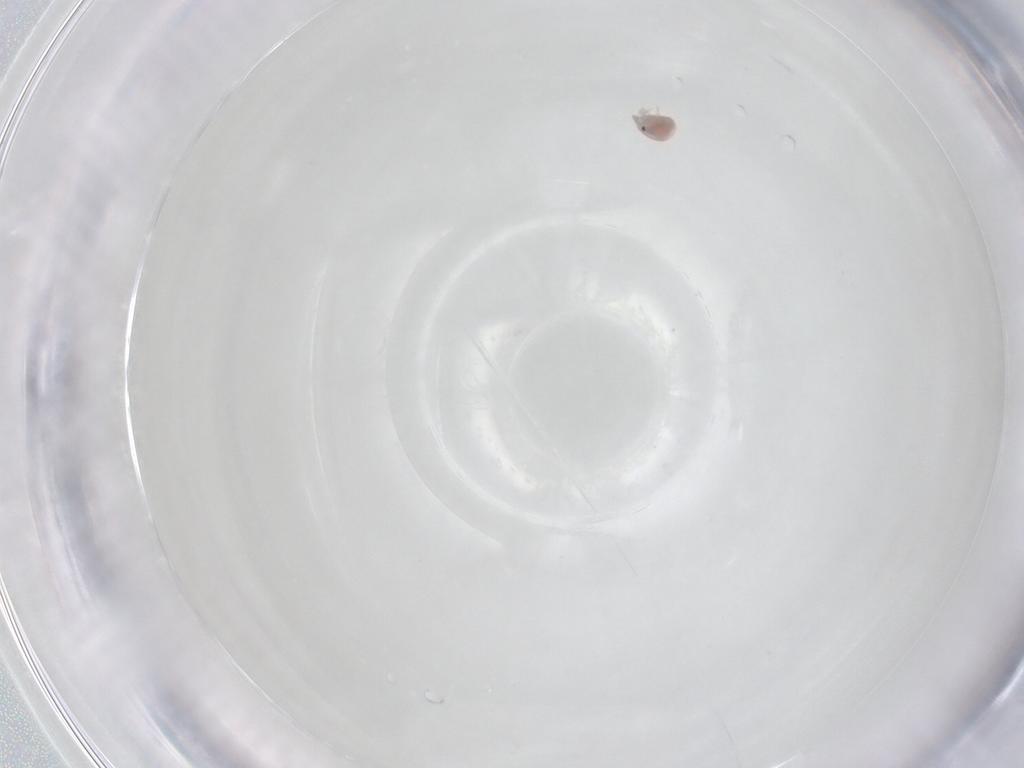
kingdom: Animalia
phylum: Arthropoda
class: Arachnida
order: Trombidiformes
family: Pionidae
